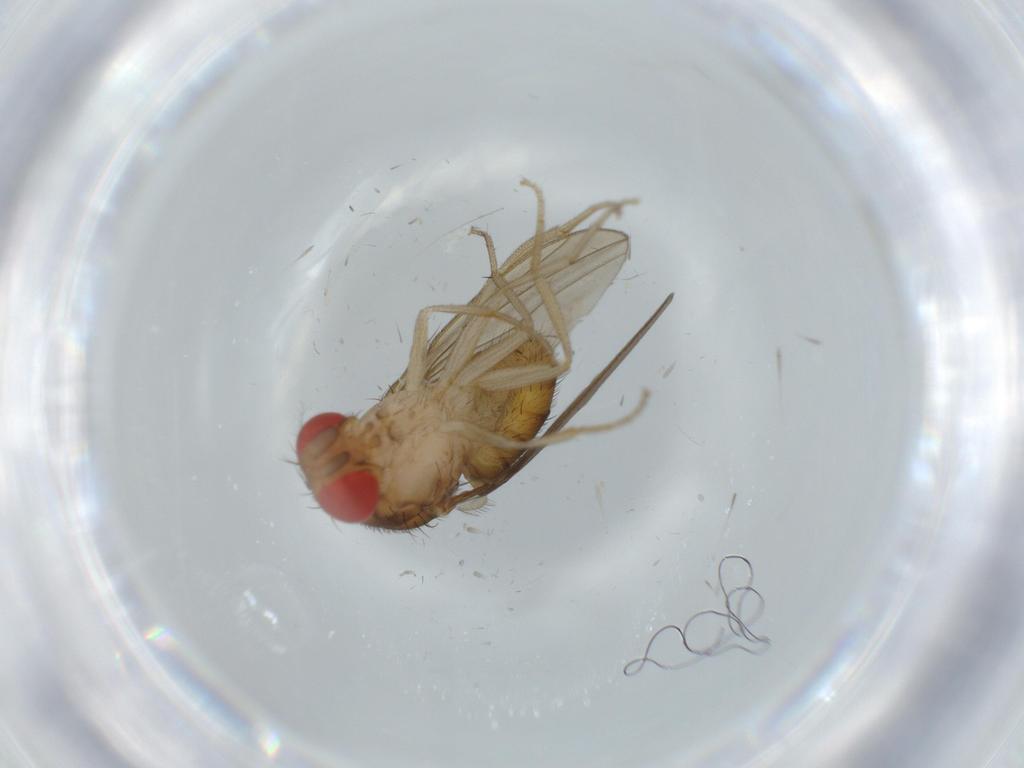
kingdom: Animalia
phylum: Arthropoda
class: Insecta
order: Diptera
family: Drosophilidae
